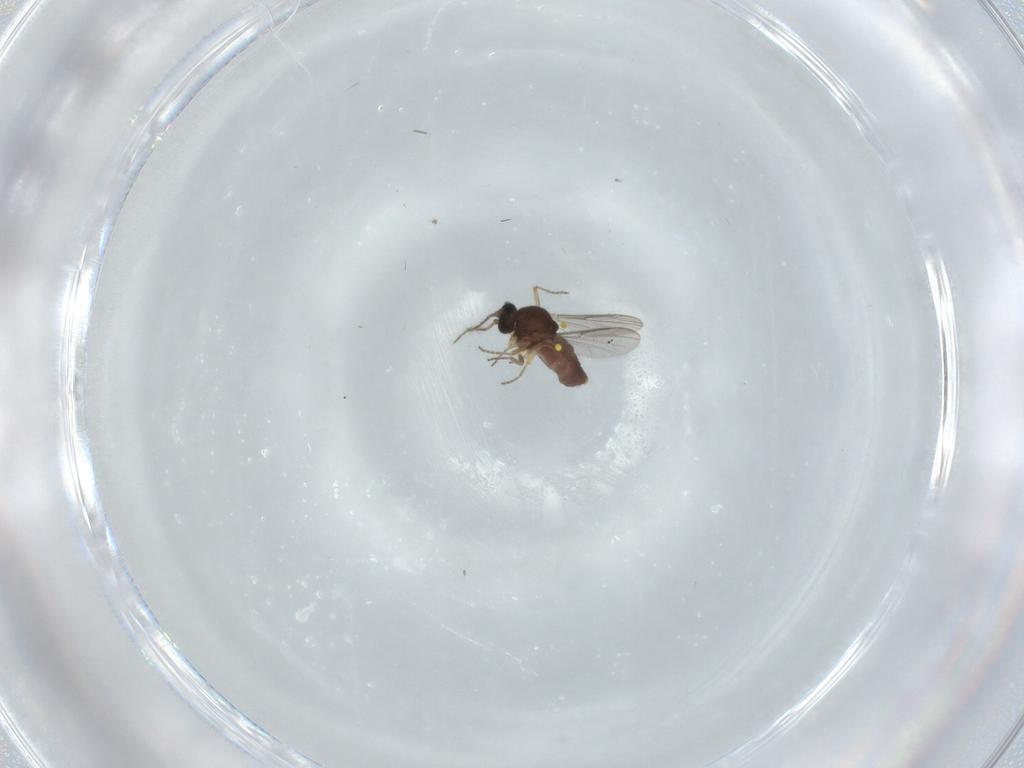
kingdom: Animalia
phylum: Arthropoda
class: Insecta
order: Diptera
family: Ceratopogonidae
